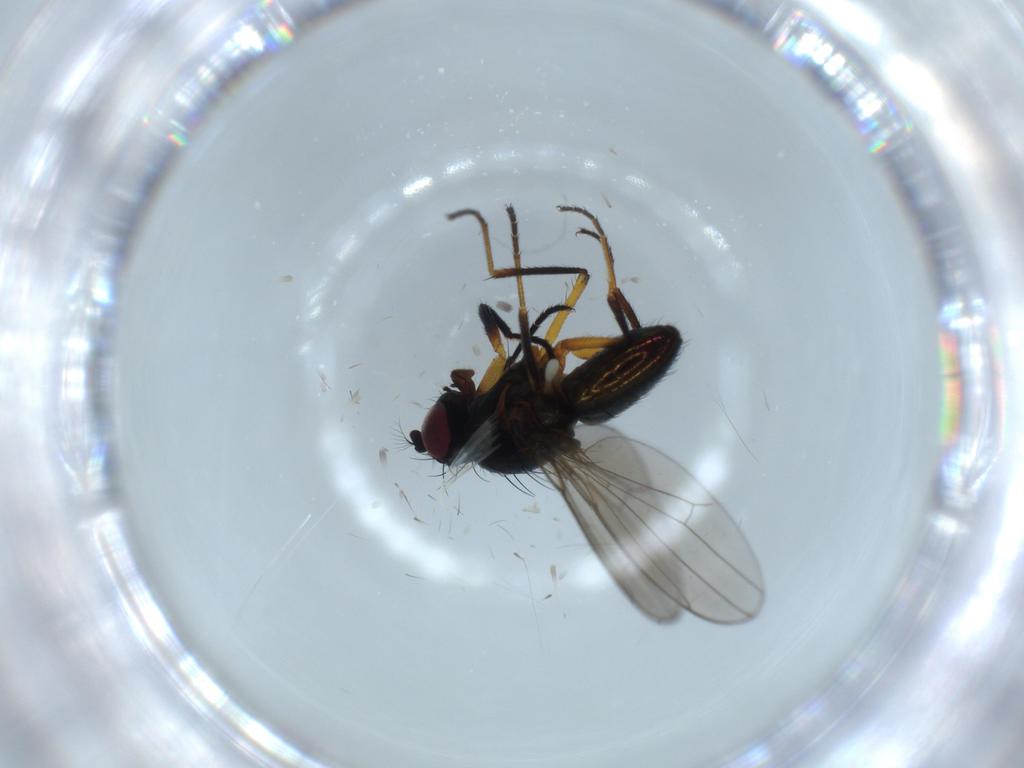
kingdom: Animalia
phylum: Arthropoda
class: Insecta
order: Diptera
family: Ephydridae
